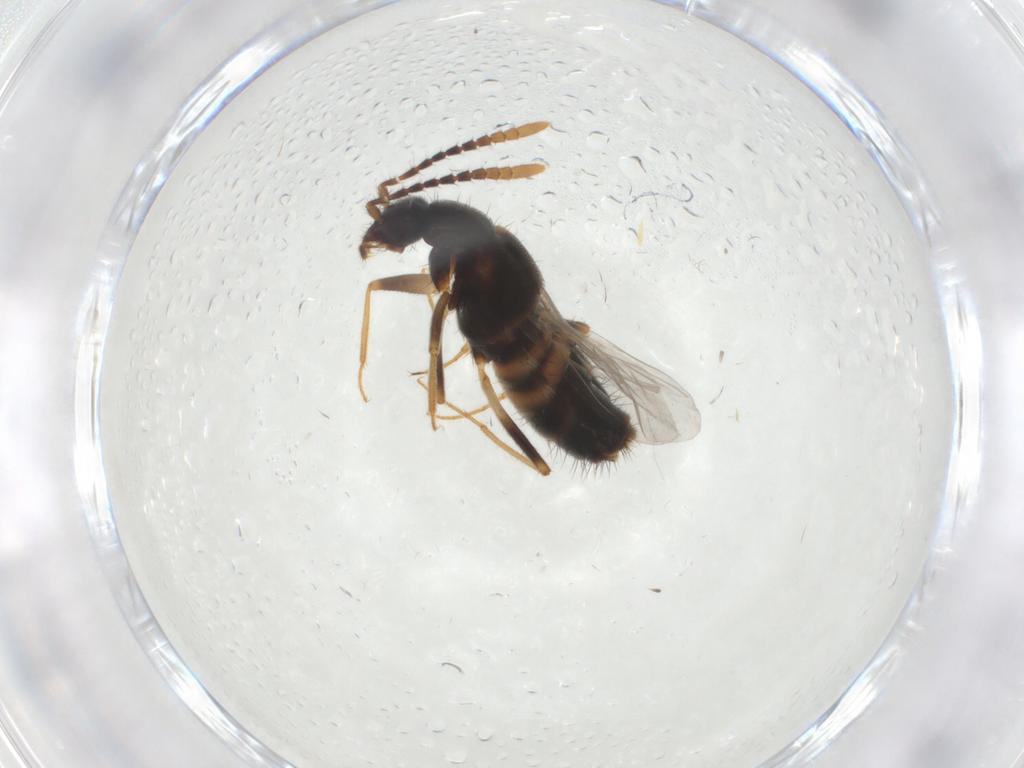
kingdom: Animalia
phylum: Arthropoda
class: Insecta
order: Coleoptera
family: Staphylinidae
